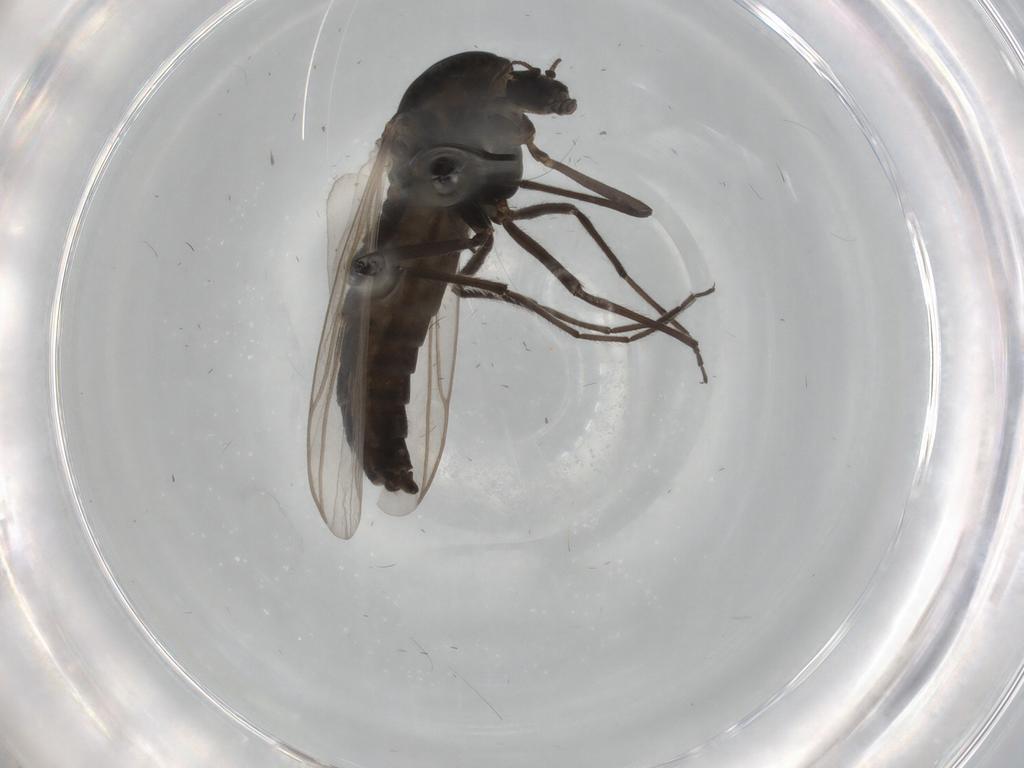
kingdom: Animalia
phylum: Arthropoda
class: Insecta
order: Diptera
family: Chironomidae
